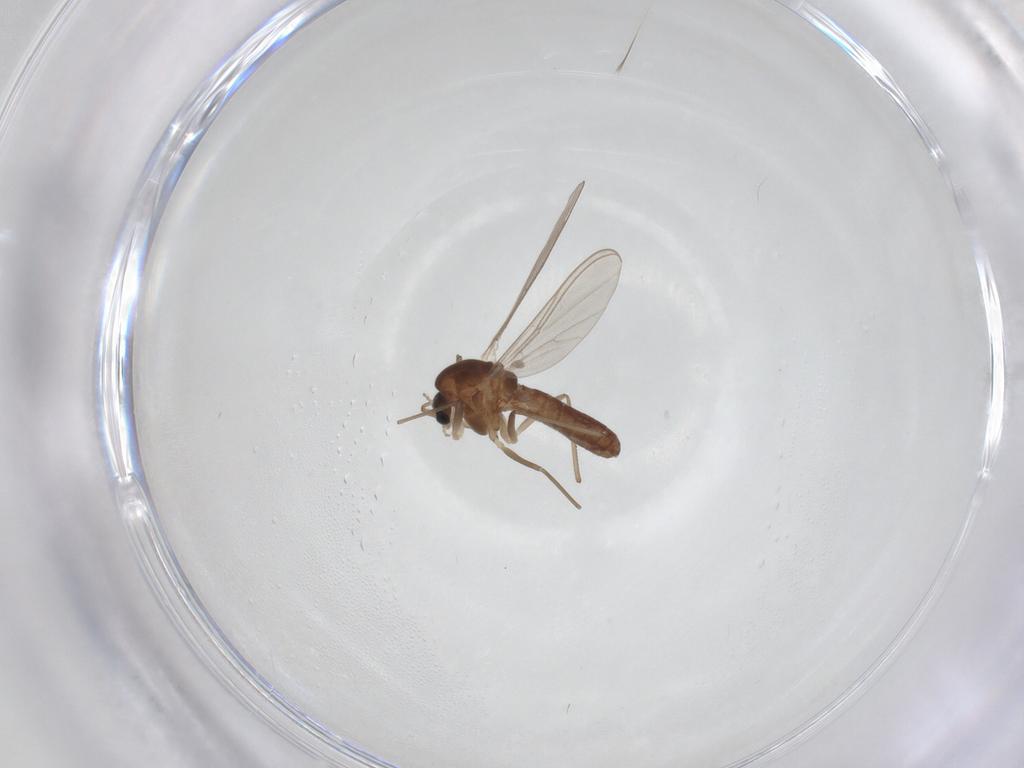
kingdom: Animalia
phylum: Arthropoda
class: Insecta
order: Diptera
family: Chironomidae
